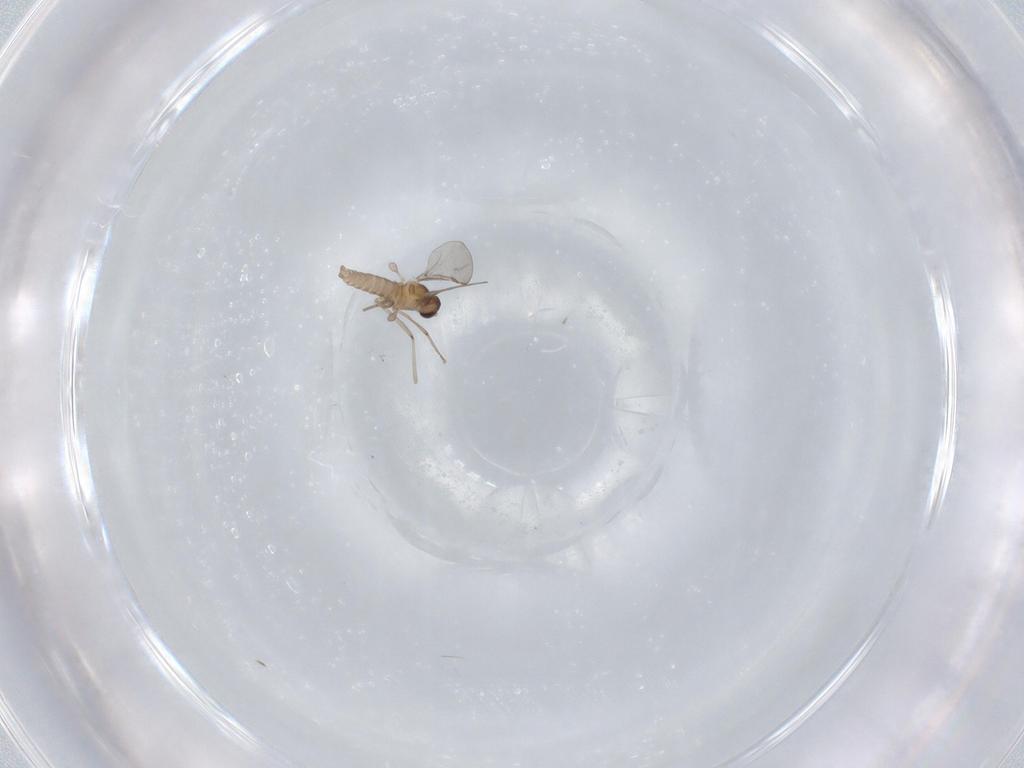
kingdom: Animalia
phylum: Arthropoda
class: Insecta
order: Diptera
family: Cecidomyiidae
